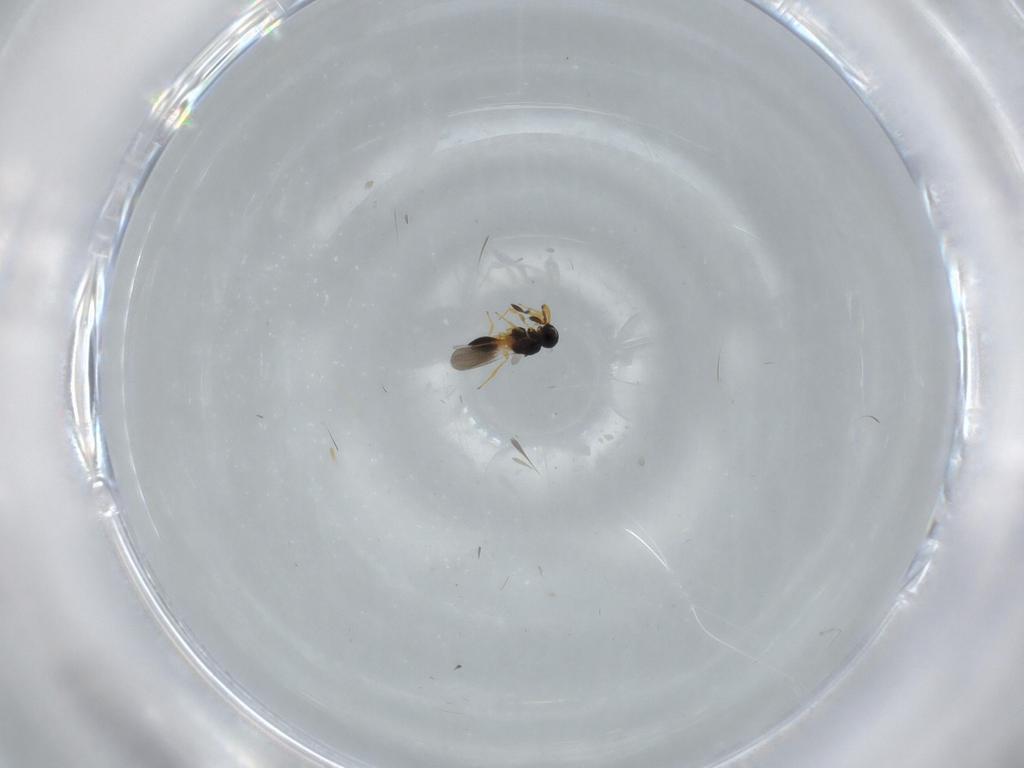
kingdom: Animalia
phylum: Arthropoda
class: Insecta
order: Hymenoptera
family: Platygastridae
